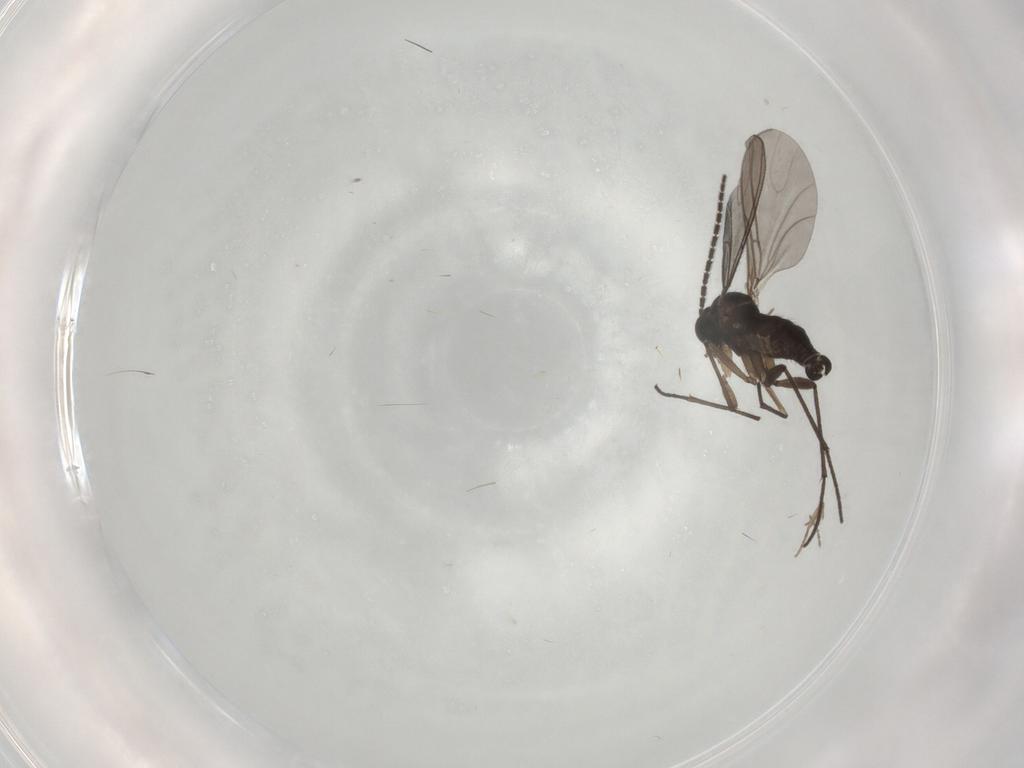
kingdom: Animalia
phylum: Arthropoda
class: Insecta
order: Diptera
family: Sciaridae
